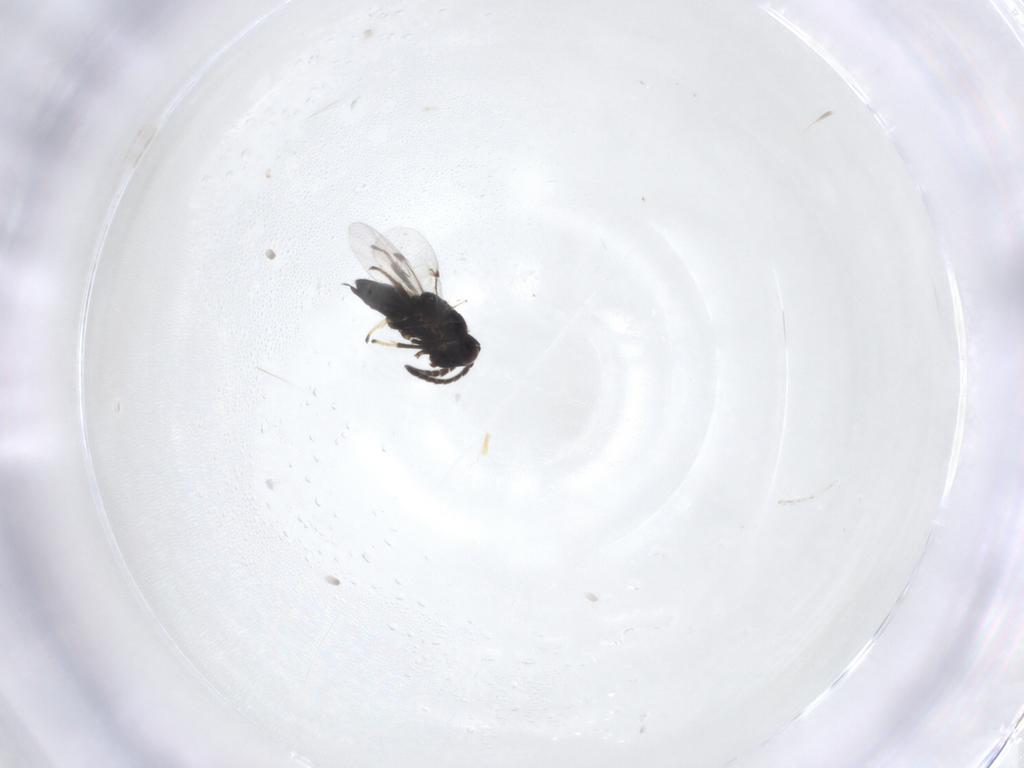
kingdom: Animalia
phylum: Arthropoda
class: Insecta
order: Hymenoptera
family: Encyrtidae
